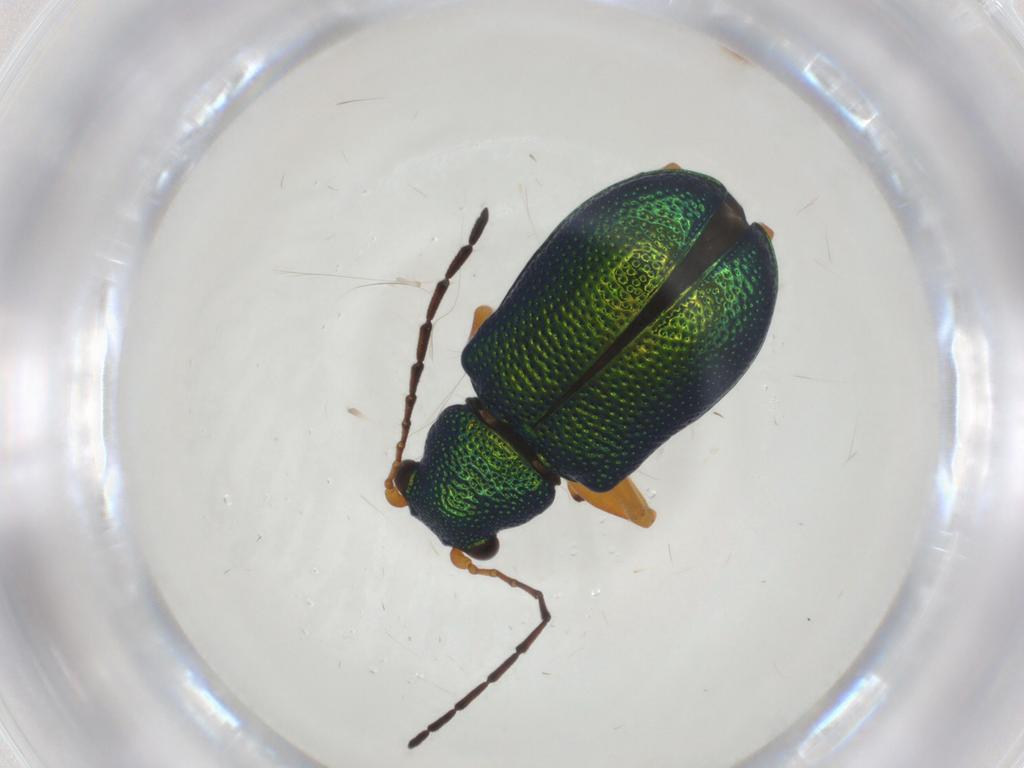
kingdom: Animalia
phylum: Arthropoda
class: Insecta
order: Coleoptera
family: Chrysomelidae
